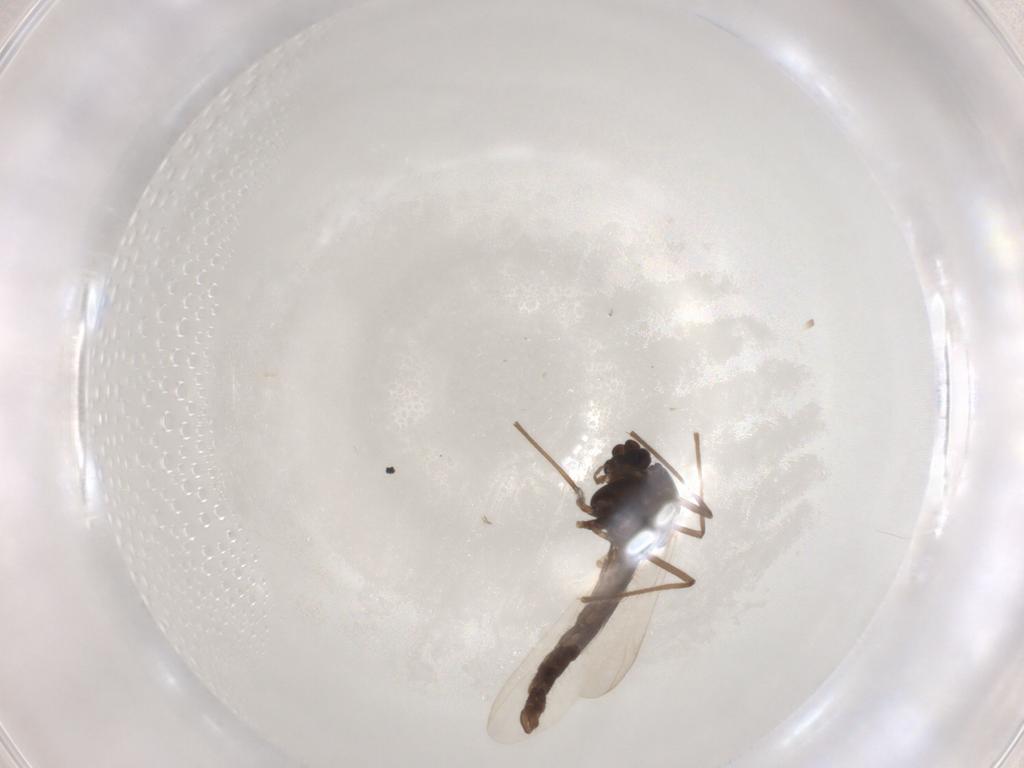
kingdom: Animalia
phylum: Arthropoda
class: Insecta
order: Diptera
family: Chironomidae
